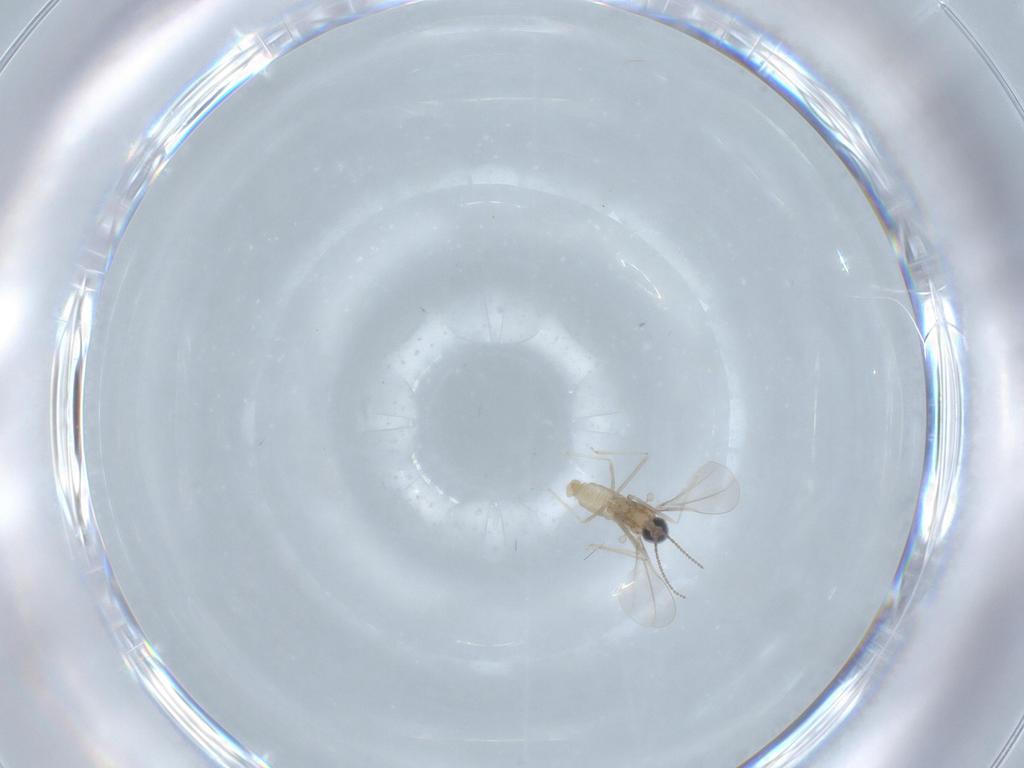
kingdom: Animalia
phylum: Arthropoda
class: Insecta
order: Diptera
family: Cecidomyiidae
